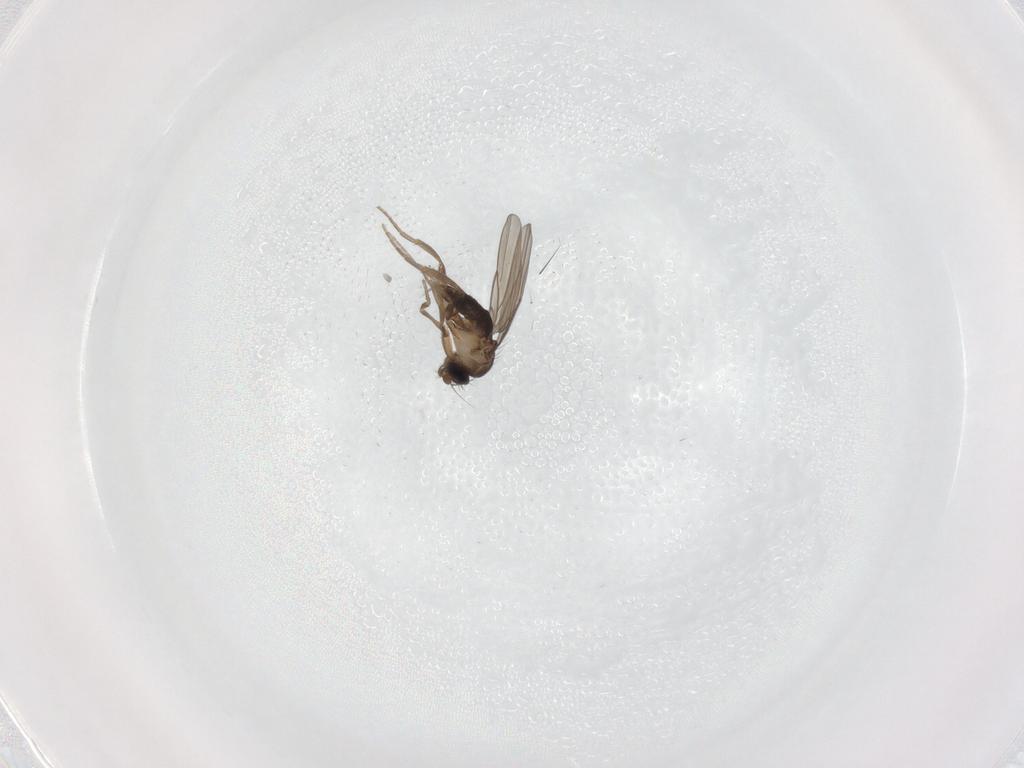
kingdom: Animalia
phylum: Arthropoda
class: Insecta
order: Diptera
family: Phoridae
